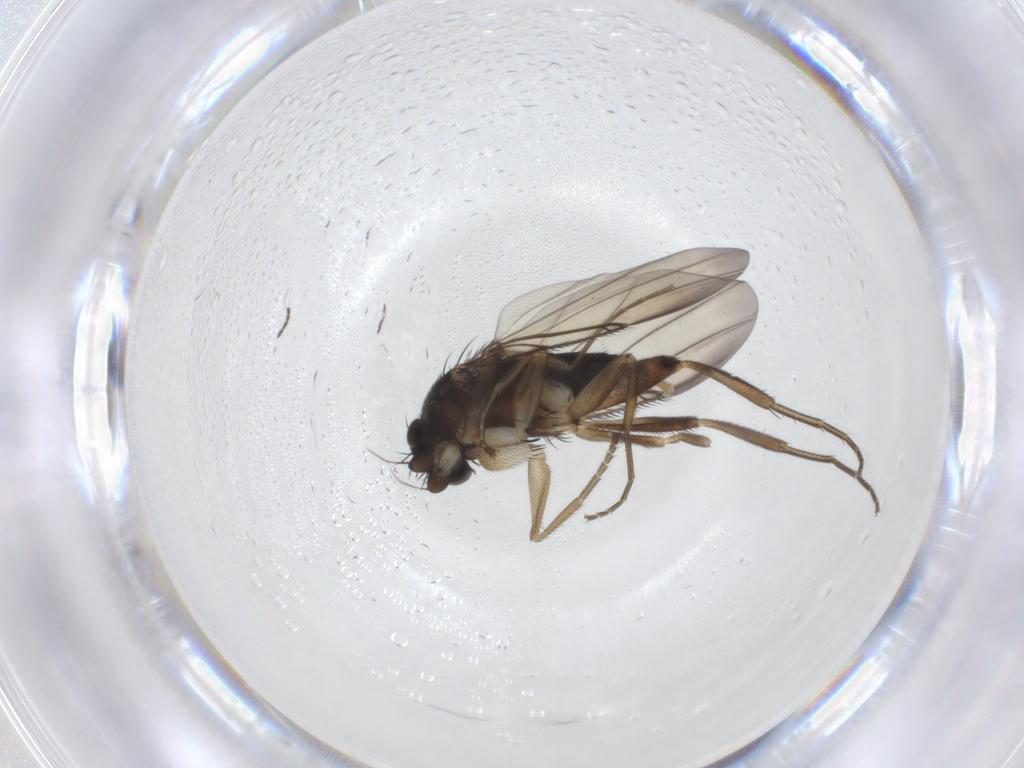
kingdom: Animalia
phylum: Arthropoda
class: Insecta
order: Diptera
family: Phoridae
